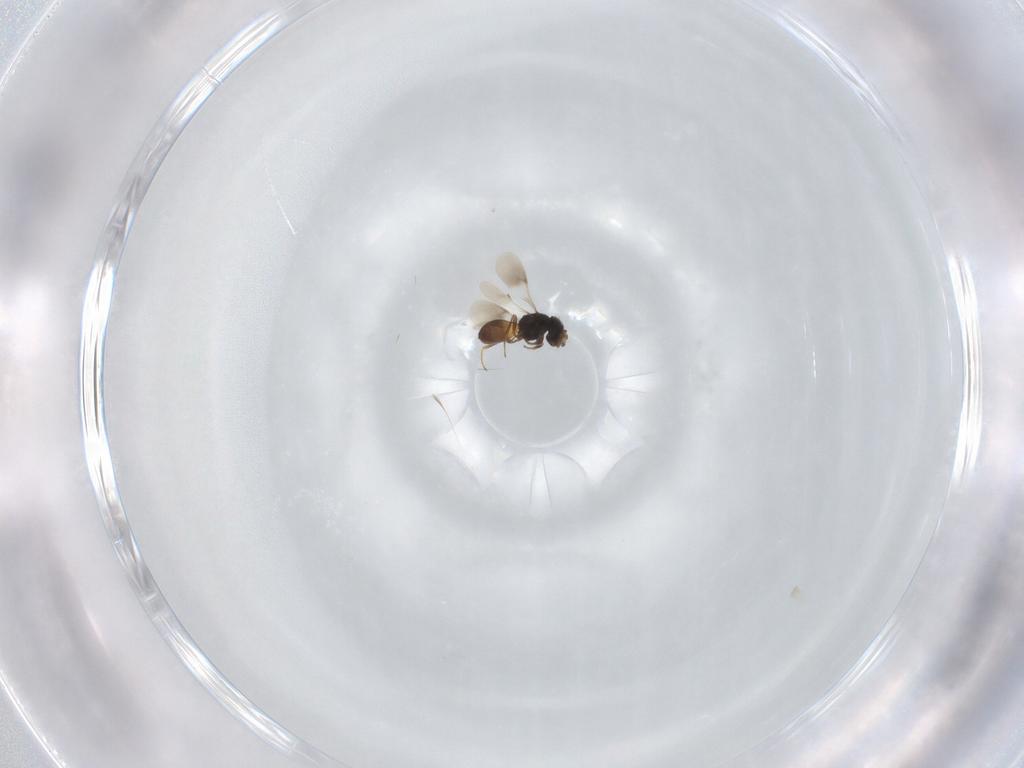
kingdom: Animalia
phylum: Arthropoda
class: Insecta
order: Hymenoptera
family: Scelionidae
